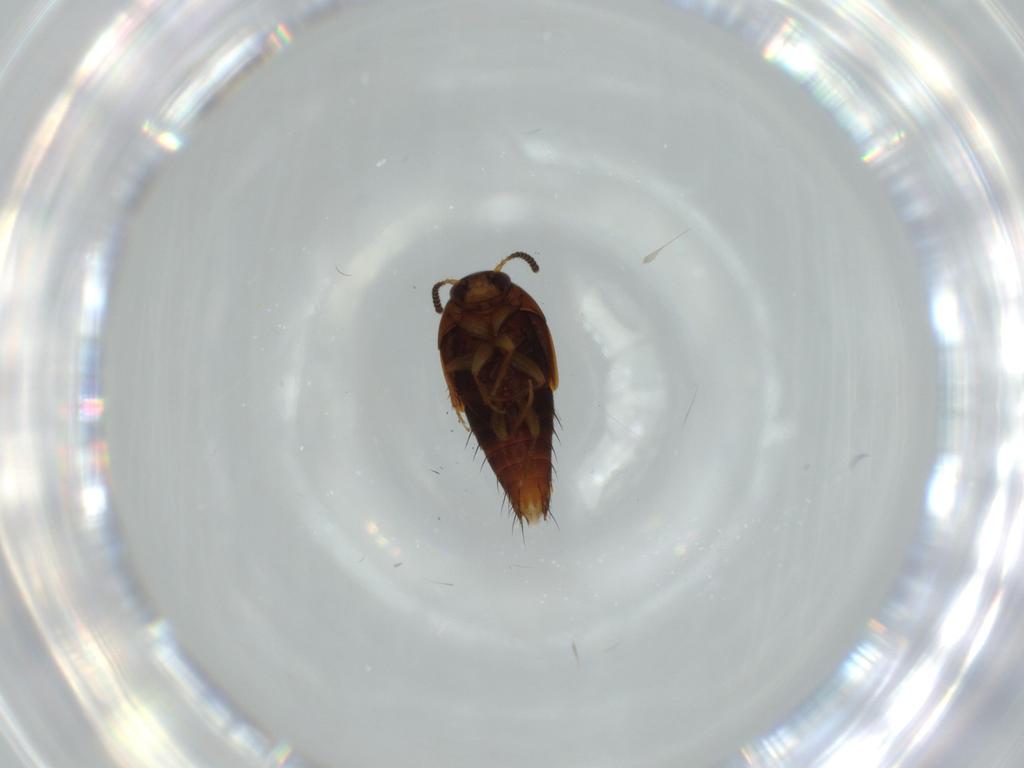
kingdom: Animalia
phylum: Arthropoda
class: Insecta
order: Coleoptera
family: Staphylinidae
